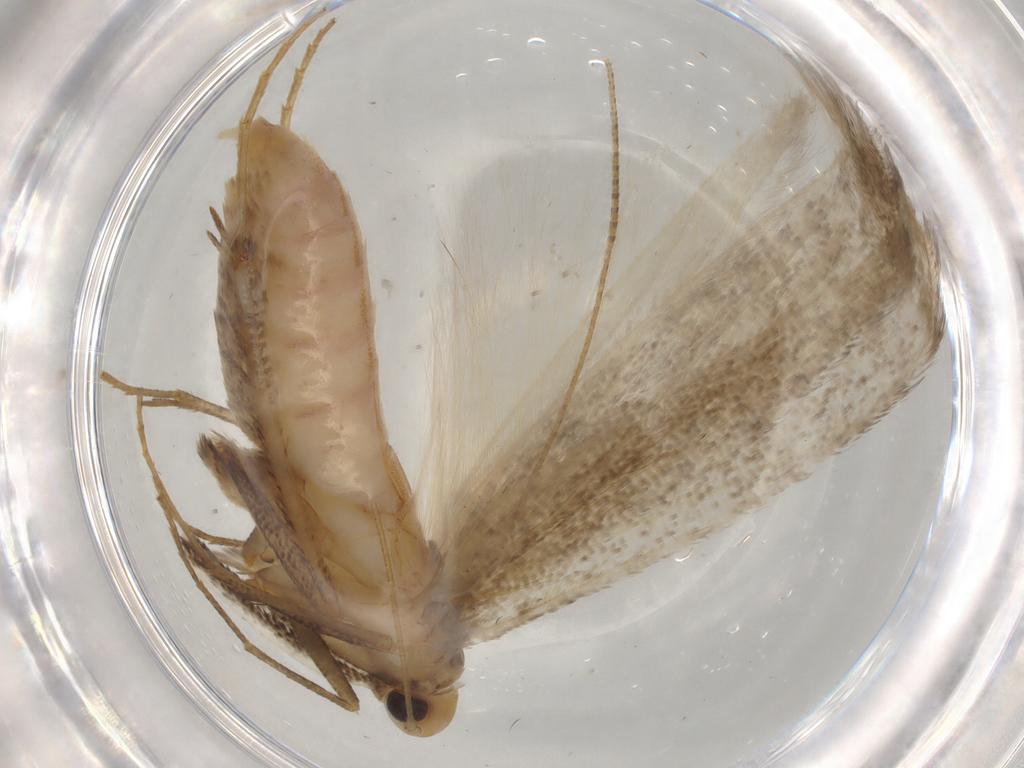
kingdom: Animalia
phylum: Arthropoda
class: Insecta
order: Lepidoptera
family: Cosmopterigidae
